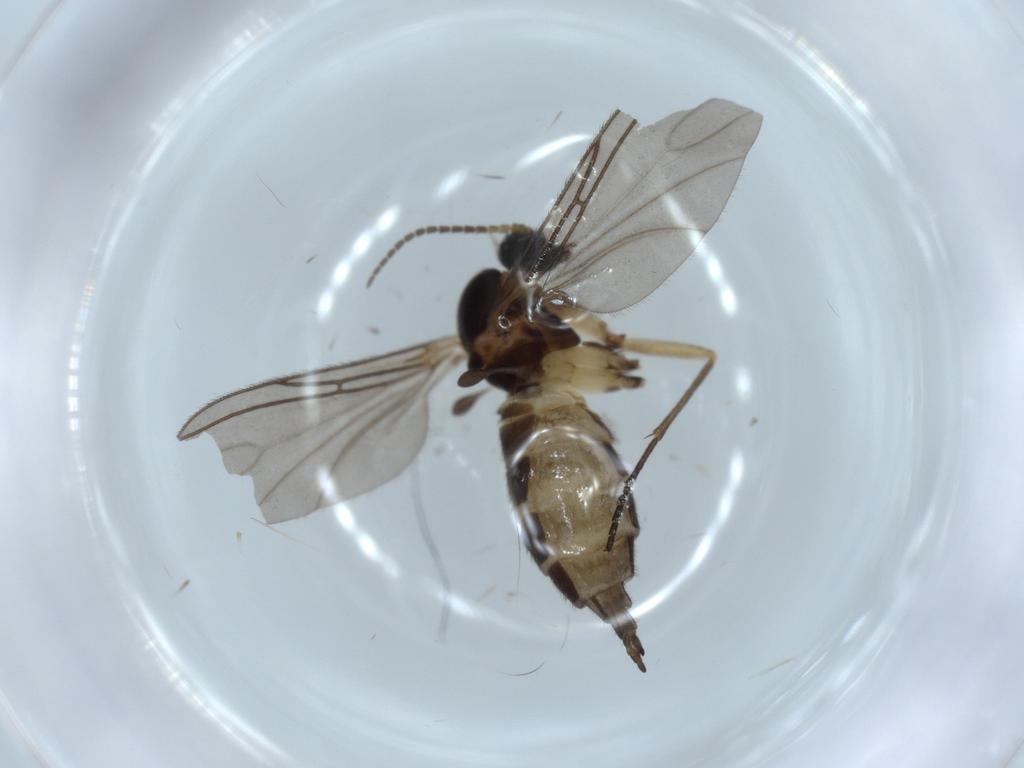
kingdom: Animalia
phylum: Arthropoda
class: Insecta
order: Diptera
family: Sciaridae
